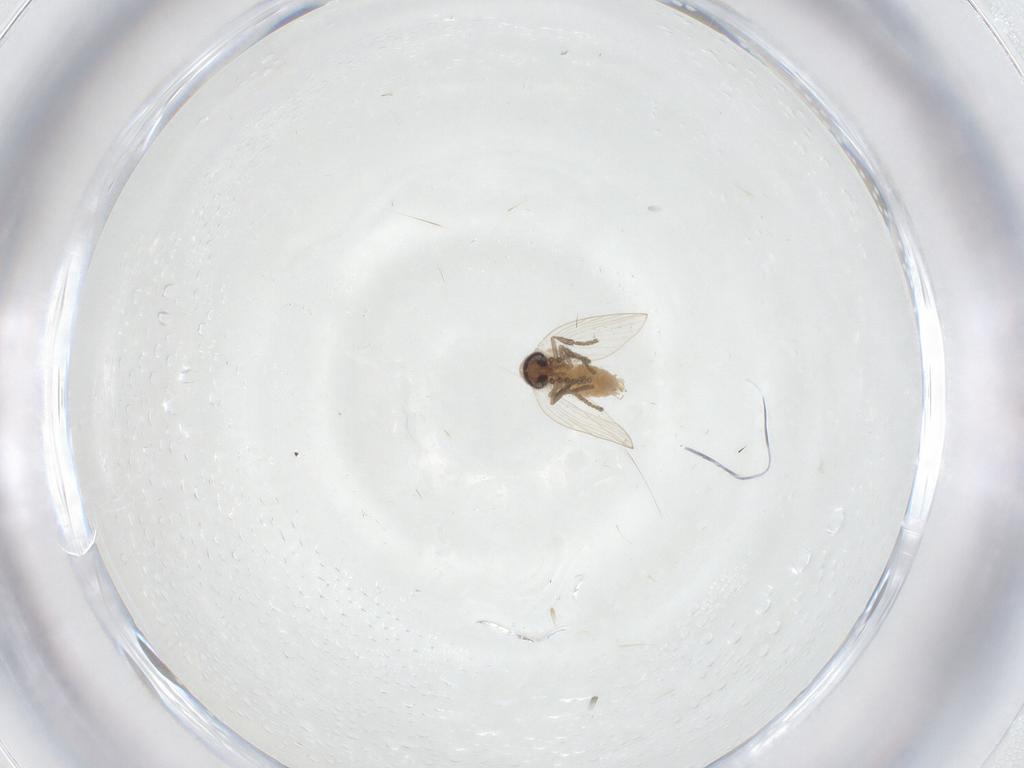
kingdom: Animalia
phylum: Arthropoda
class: Insecta
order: Diptera
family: Psychodidae
